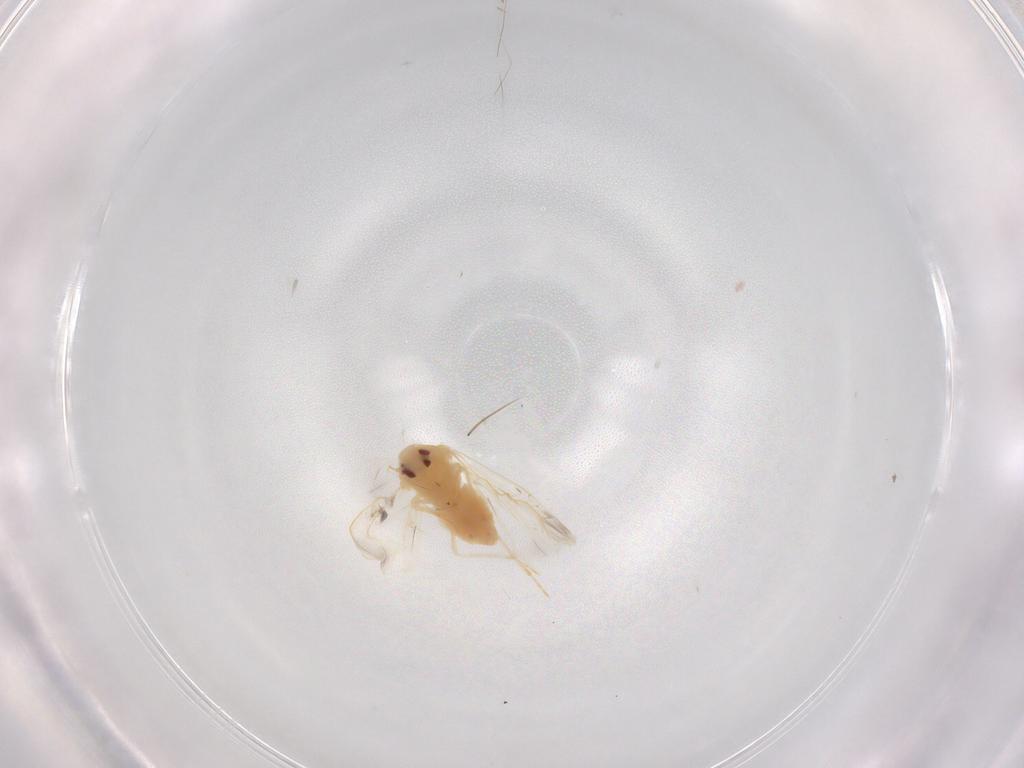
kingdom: Animalia
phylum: Arthropoda
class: Insecta
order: Hemiptera
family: Aleyrodidae
